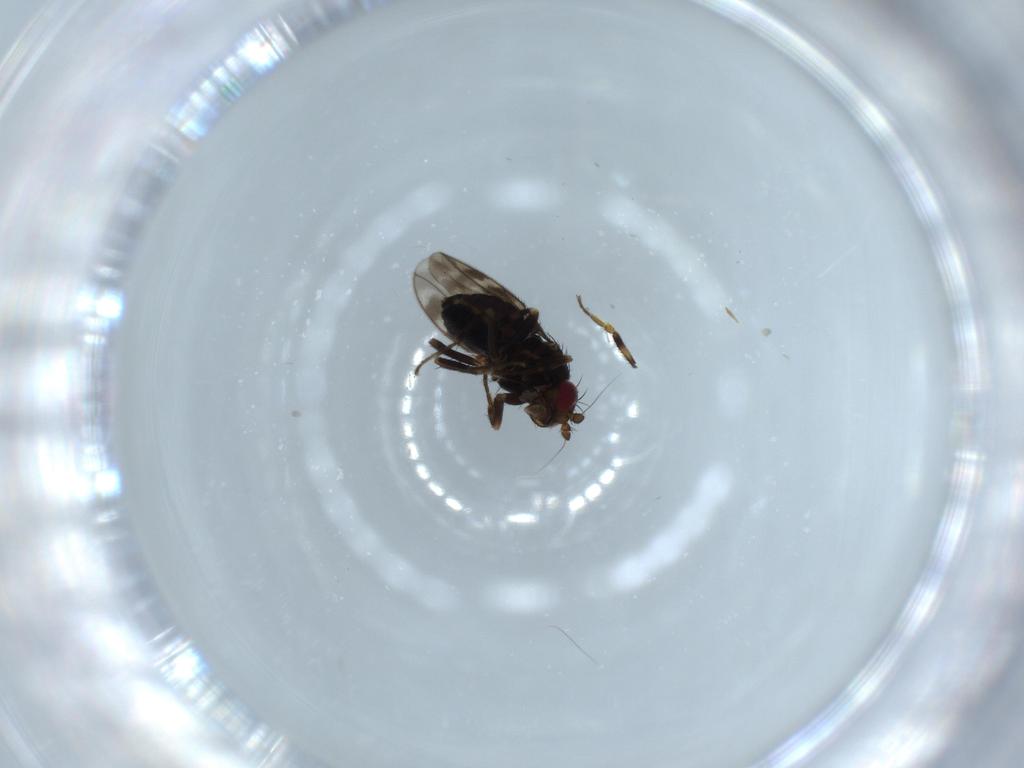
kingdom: Animalia
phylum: Arthropoda
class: Insecta
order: Diptera
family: Sphaeroceridae
